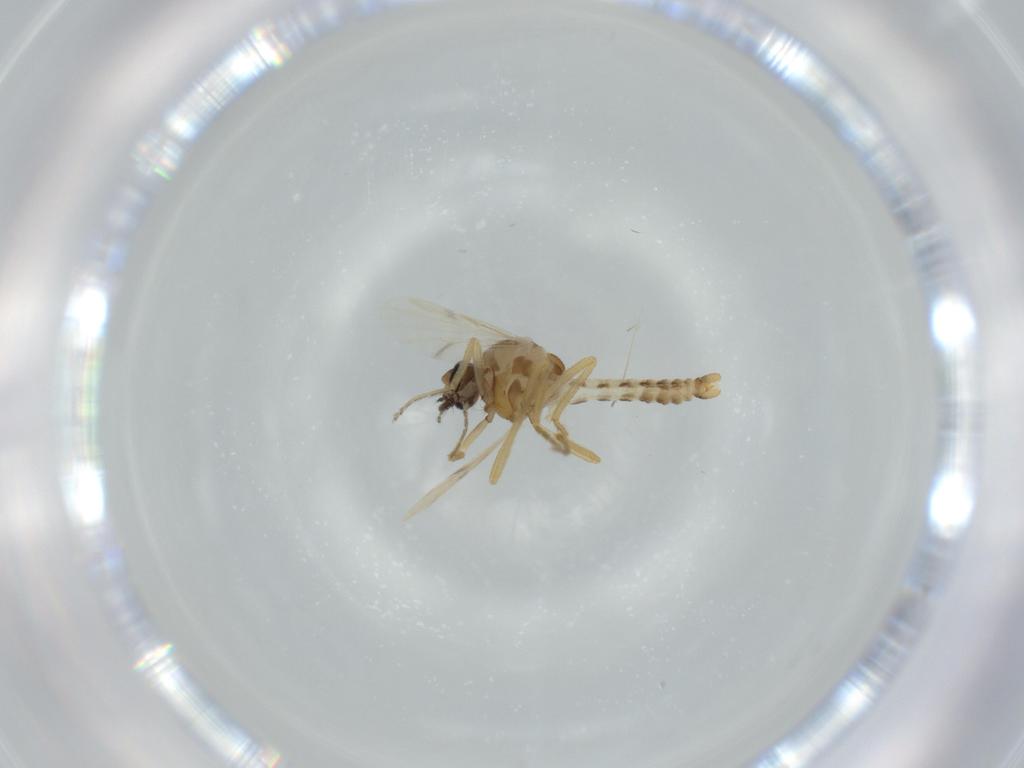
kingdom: Animalia
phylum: Arthropoda
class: Insecta
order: Diptera
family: Ceratopogonidae
